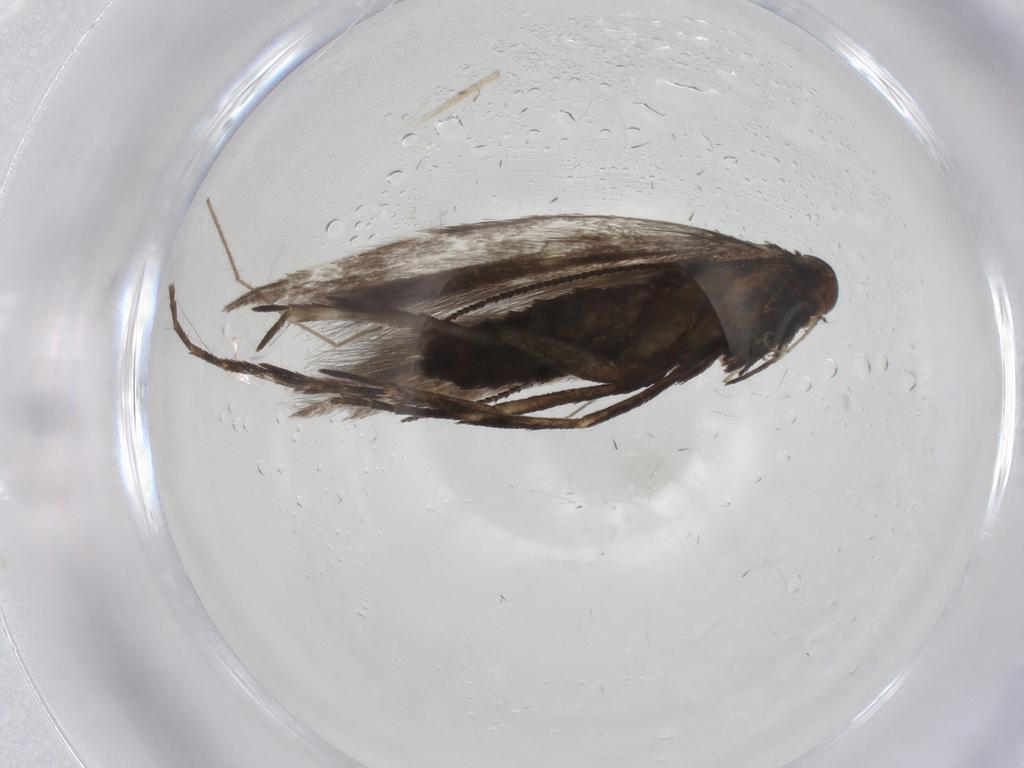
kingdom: Animalia
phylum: Arthropoda
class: Insecta
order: Lepidoptera
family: Gelechiidae
